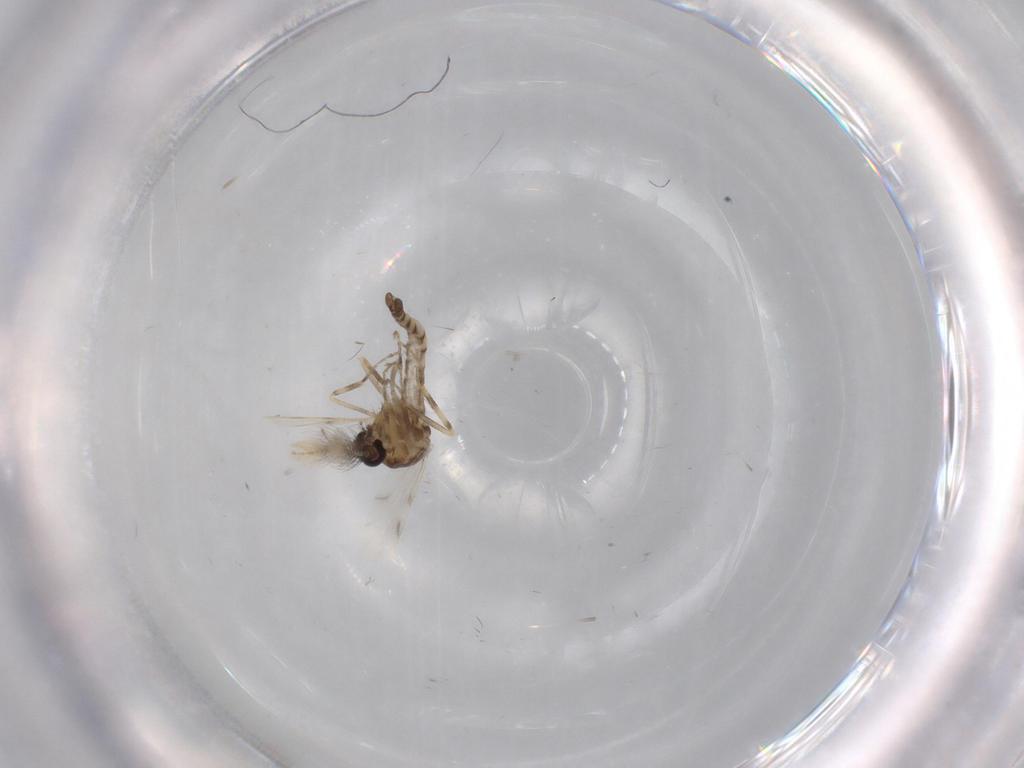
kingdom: Animalia
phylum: Arthropoda
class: Insecta
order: Diptera
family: Ceratopogonidae
